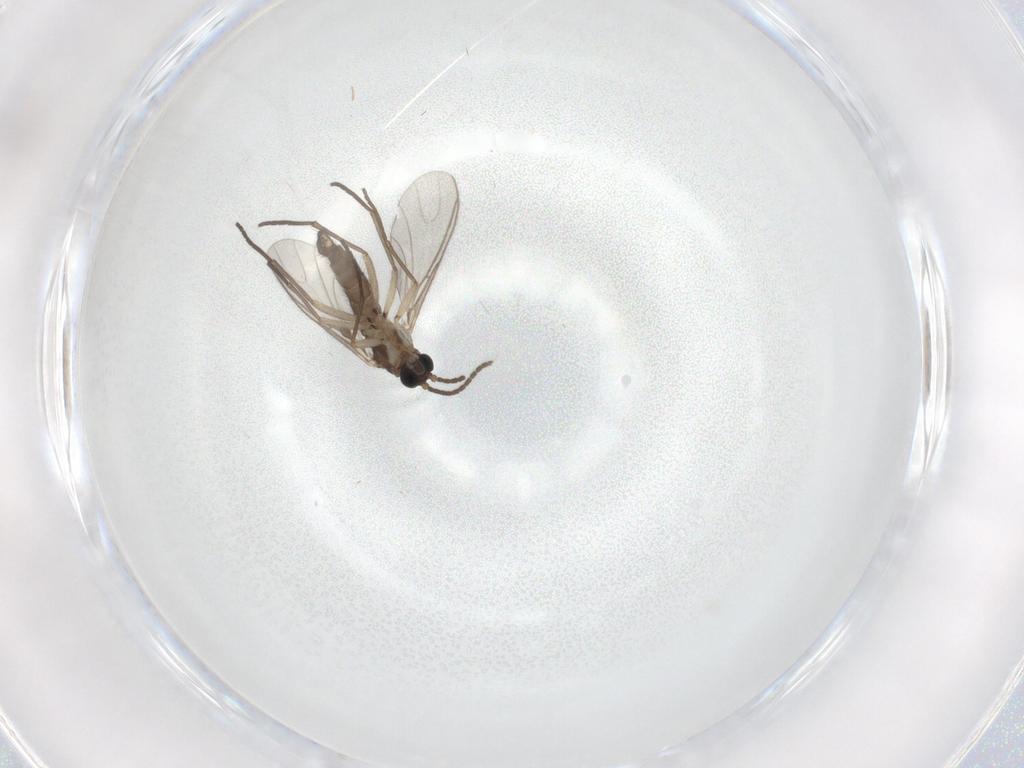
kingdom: Animalia
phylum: Arthropoda
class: Insecta
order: Diptera
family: Sciaridae
